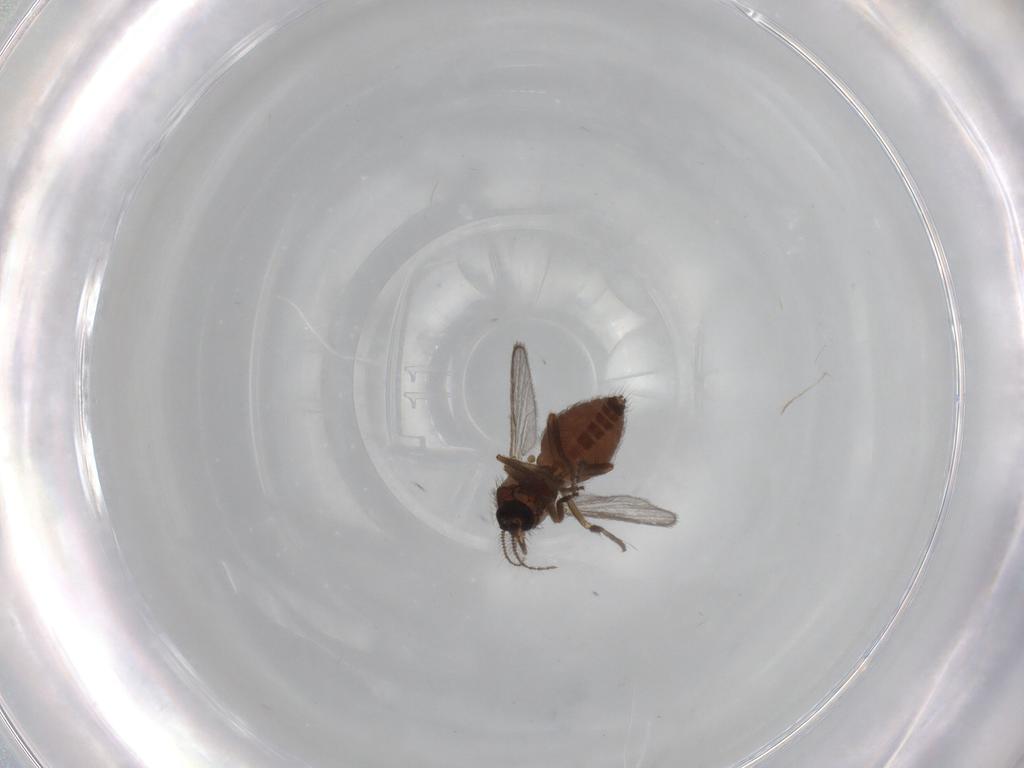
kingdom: Animalia
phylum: Arthropoda
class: Insecta
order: Diptera
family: Ceratopogonidae
